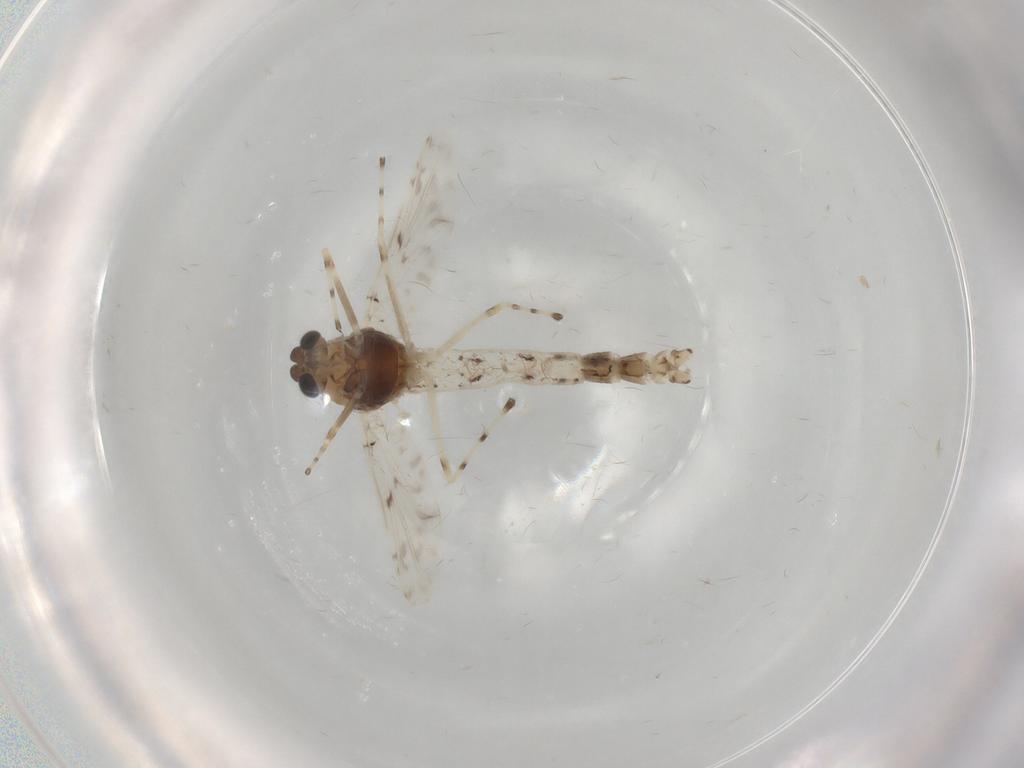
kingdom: Animalia
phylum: Arthropoda
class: Insecta
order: Diptera
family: Chironomidae
